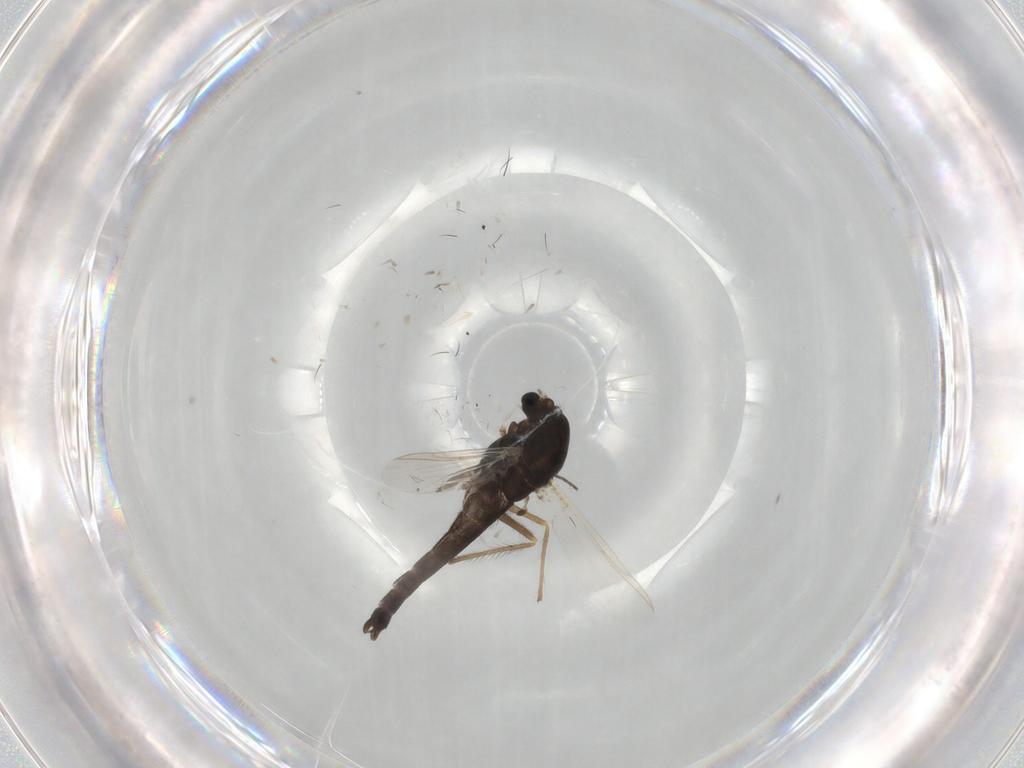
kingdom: Animalia
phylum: Arthropoda
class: Insecta
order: Diptera
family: Chironomidae
